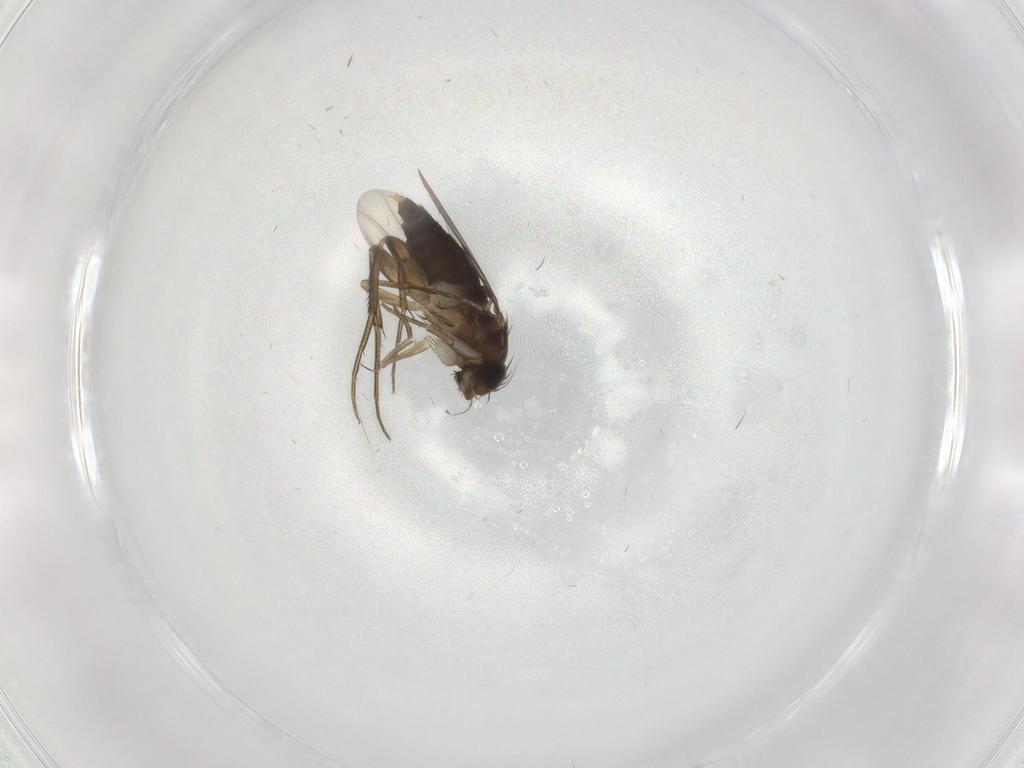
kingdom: Animalia
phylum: Arthropoda
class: Insecta
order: Diptera
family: Phoridae
